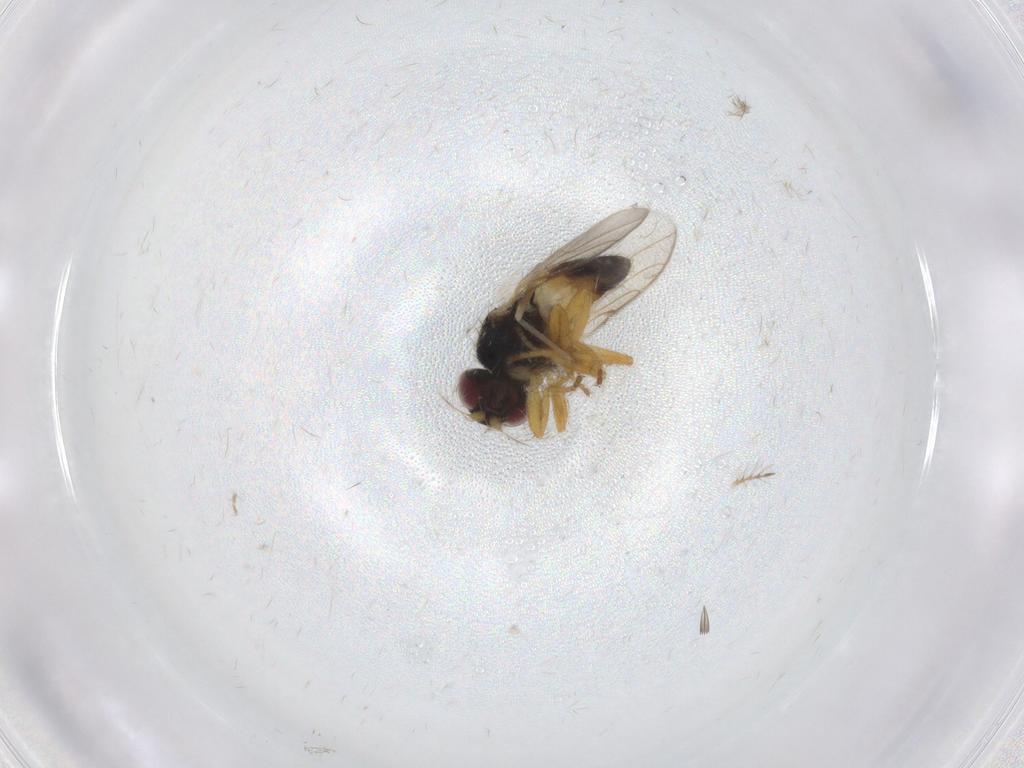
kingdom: Animalia
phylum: Arthropoda
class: Insecta
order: Diptera
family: Chloropidae
